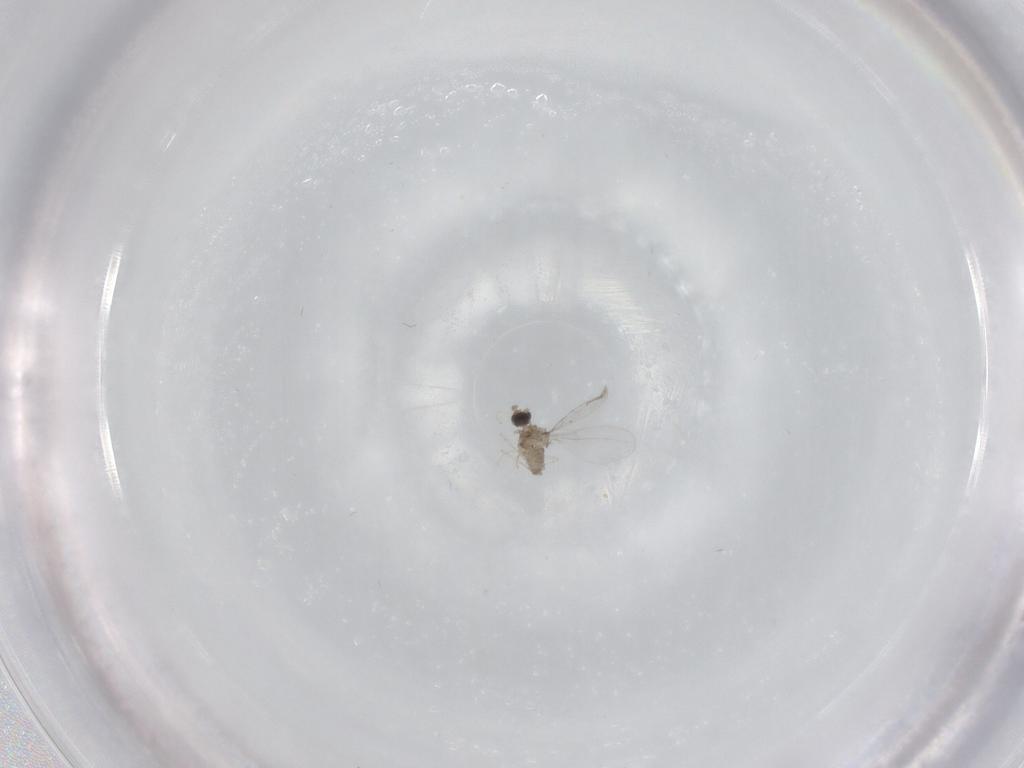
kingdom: Animalia
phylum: Arthropoda
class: Insecta
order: Diptera
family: Cecidomyiidae
